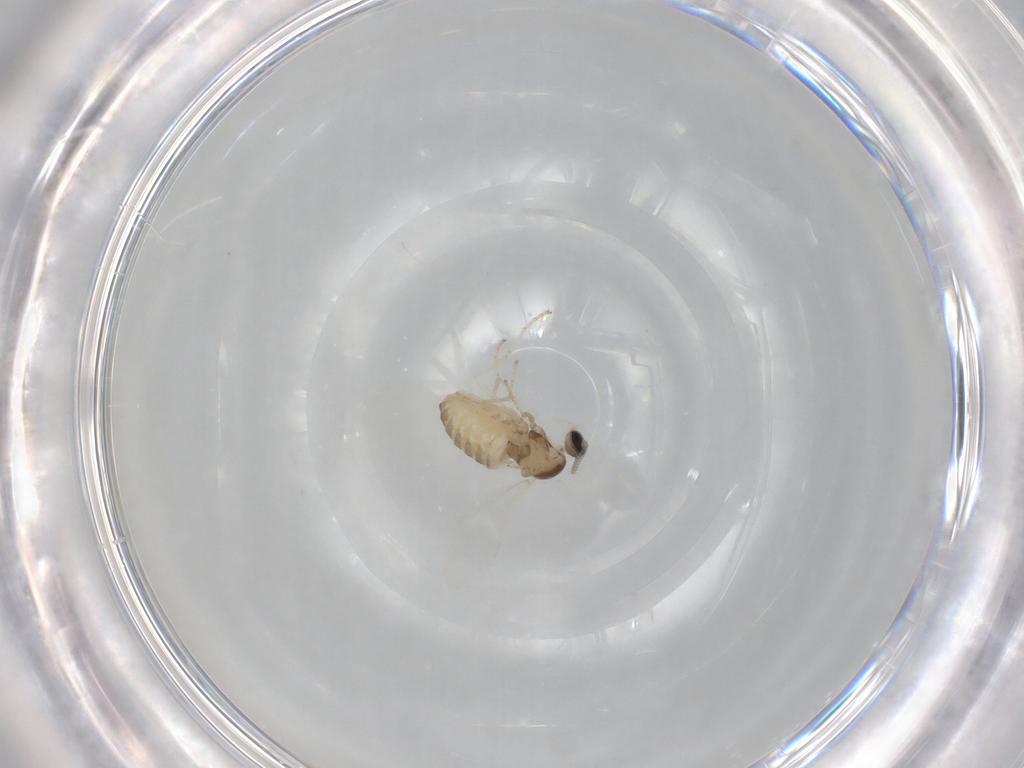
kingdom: Animalia
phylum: Arthropoda
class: Insecta
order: Diptera
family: Cecidomyiidae
